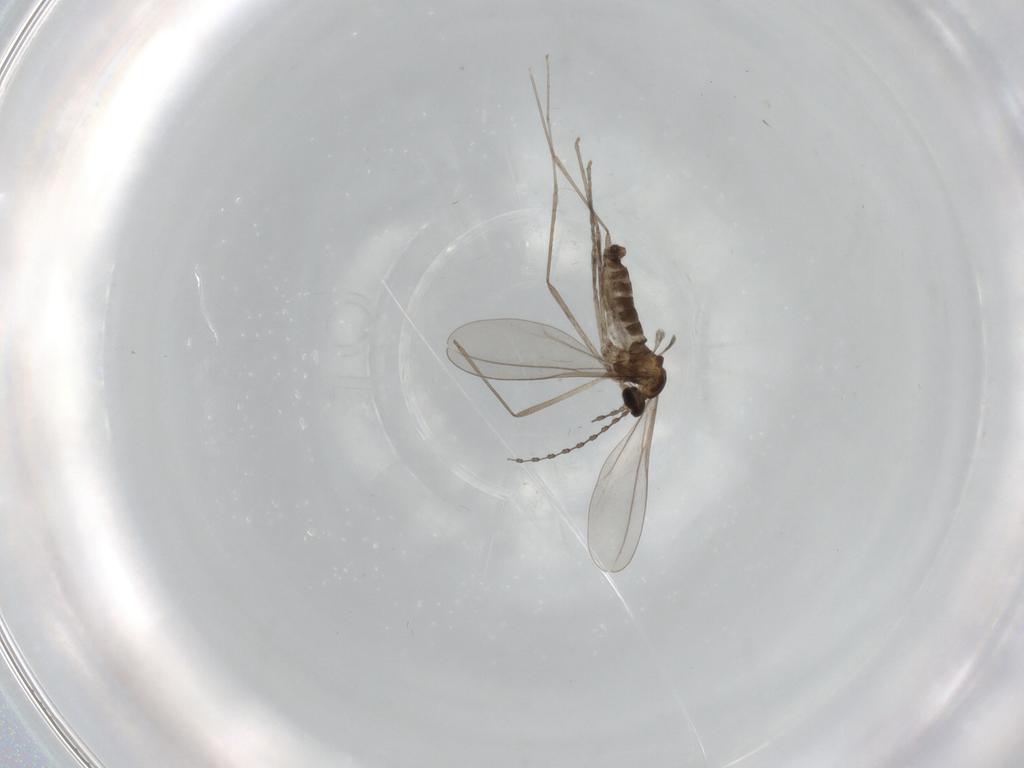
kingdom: Animalia
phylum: Arthropoda
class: Insecta
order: Diptera
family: Cecidomyiidae
